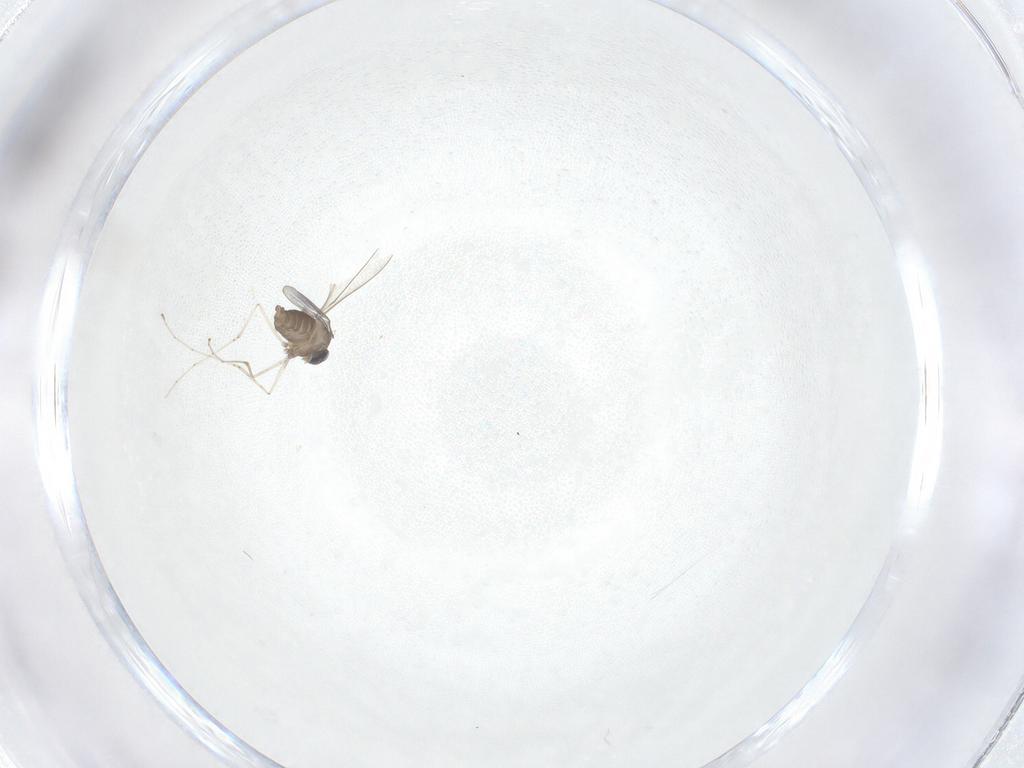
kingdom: Animalia
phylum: Arthropoda
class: Insecta
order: Diptera
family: Cecidomyiidae
